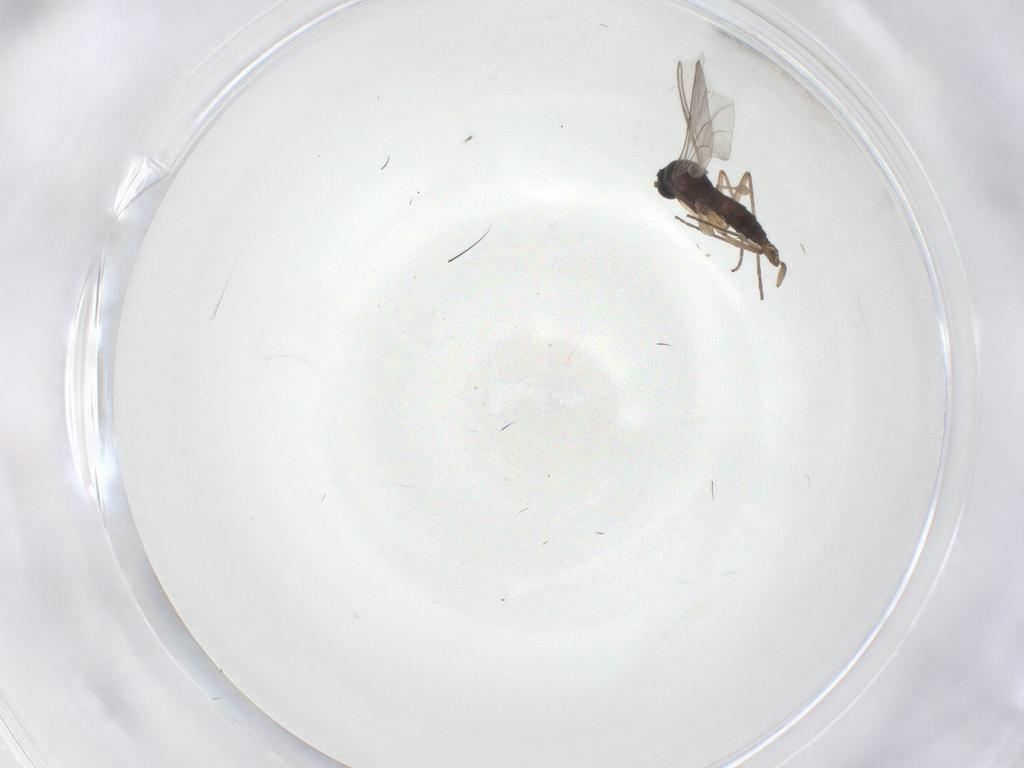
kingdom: Animalia
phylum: Arthropoda
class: Insecta
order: Diptera
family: Sciaridae
